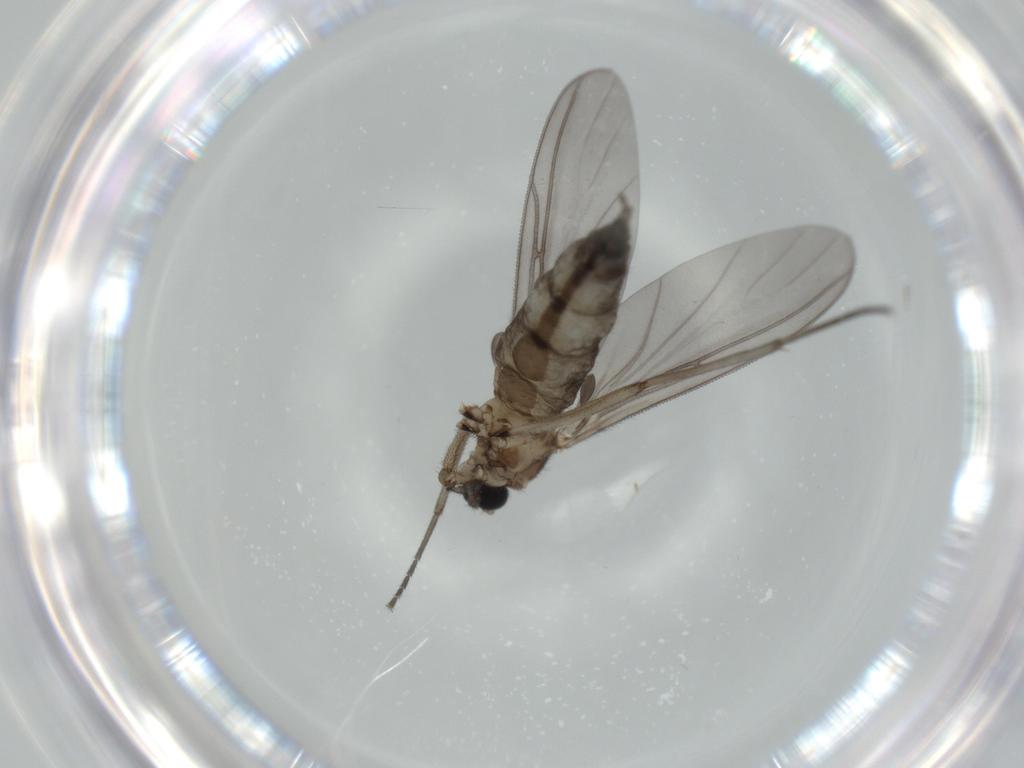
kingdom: Animalia
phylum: Arthropoda
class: Insecta
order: Diptera
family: Sciaridae
